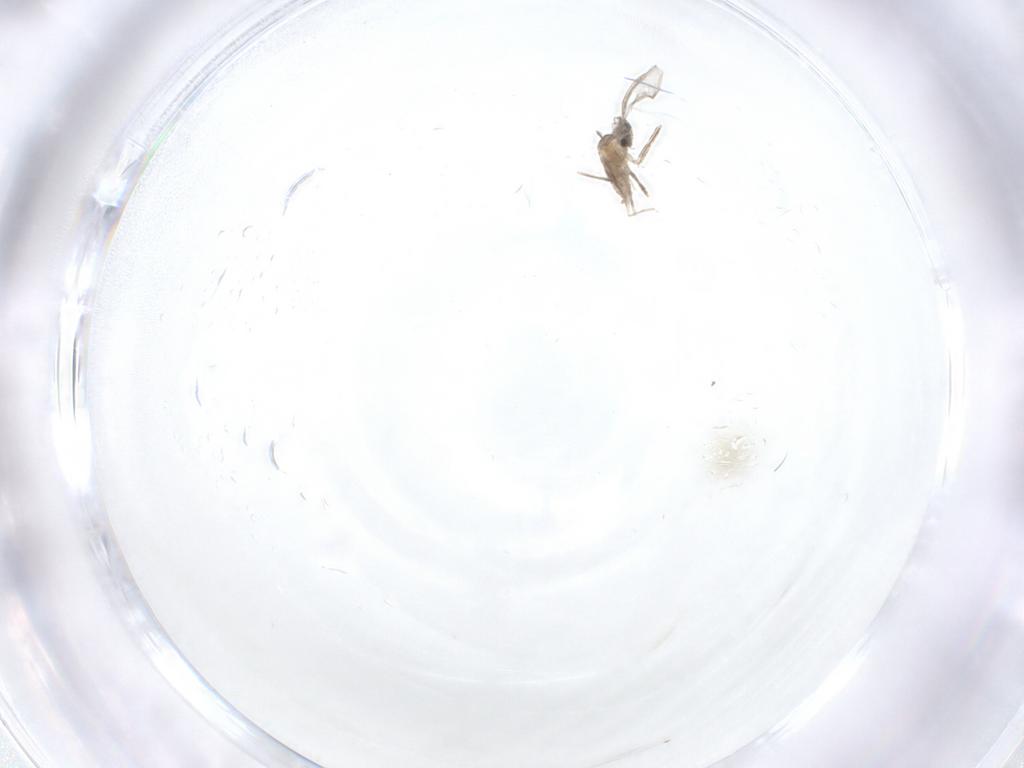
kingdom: Animalia
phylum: Arthropoda
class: Insecta
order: Diptera
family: Tabanidae
